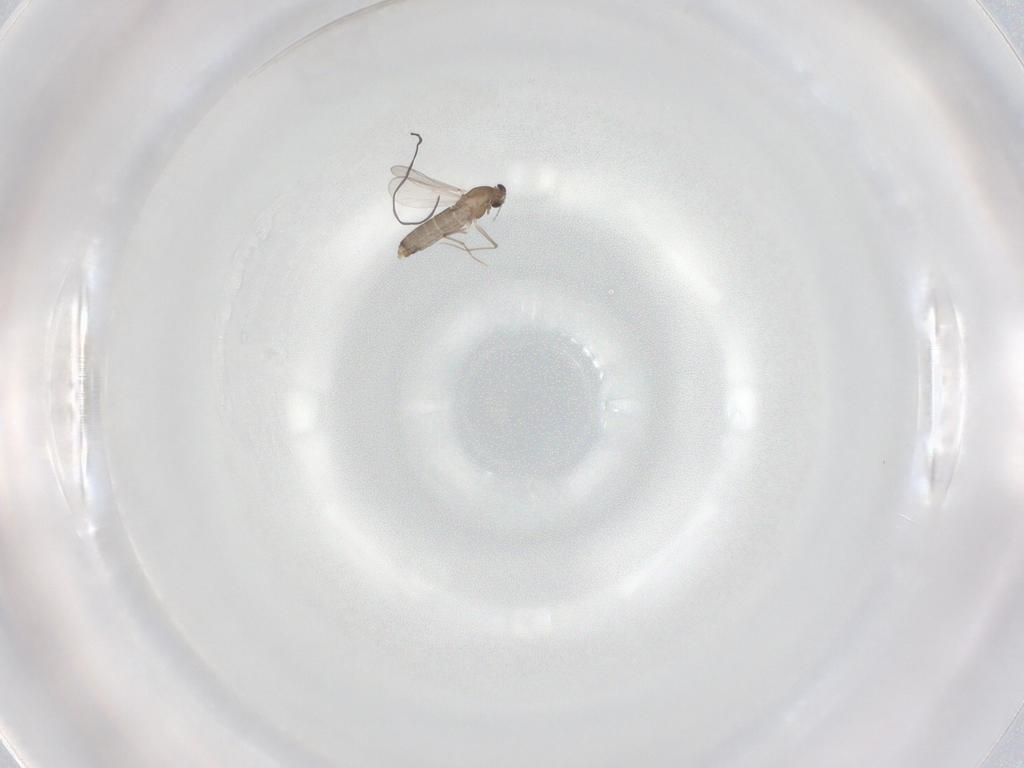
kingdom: Animalia
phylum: Arthropoda
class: Insecta
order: Diptera
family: Chironomidae
